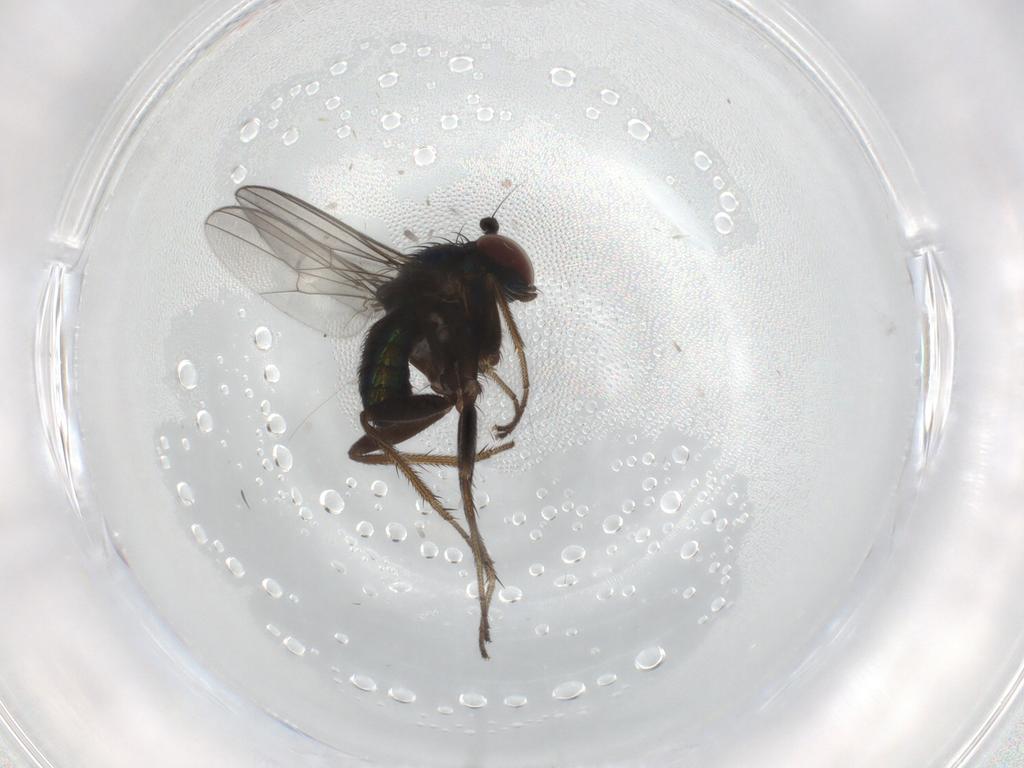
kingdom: Animalia
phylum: Arthropoda
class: Insecta
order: Diptera
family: Dolichopodidae
